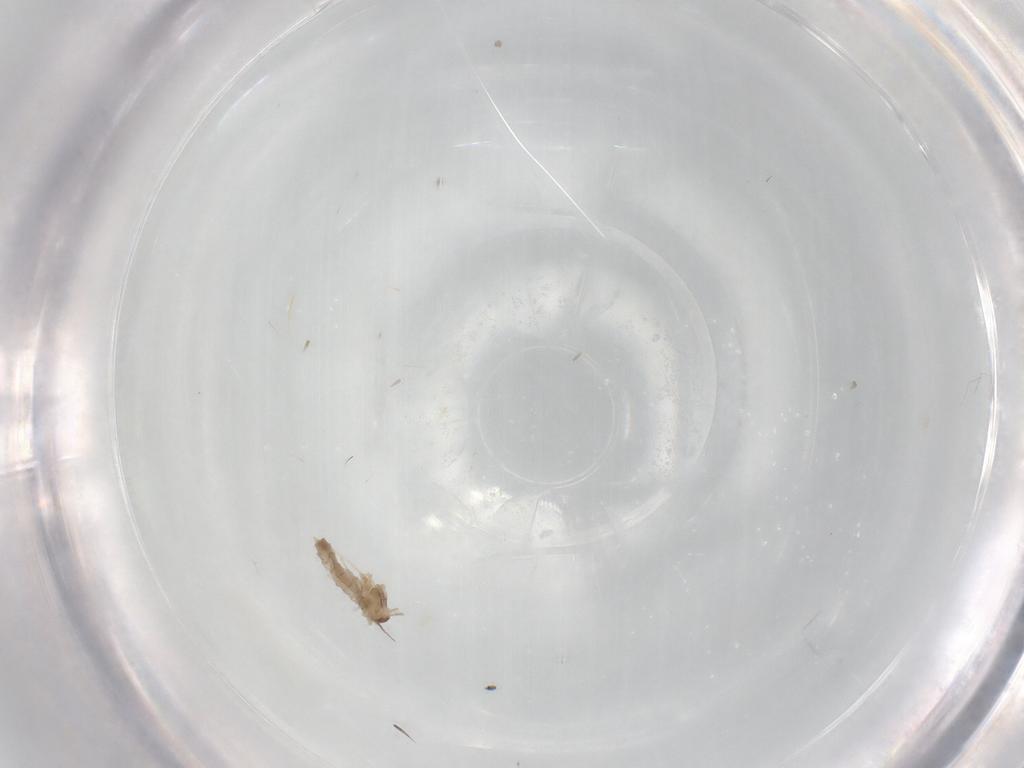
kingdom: Animalia
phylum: Arthropoda
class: Insecta
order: Diptera
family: Cecidomyiidae
